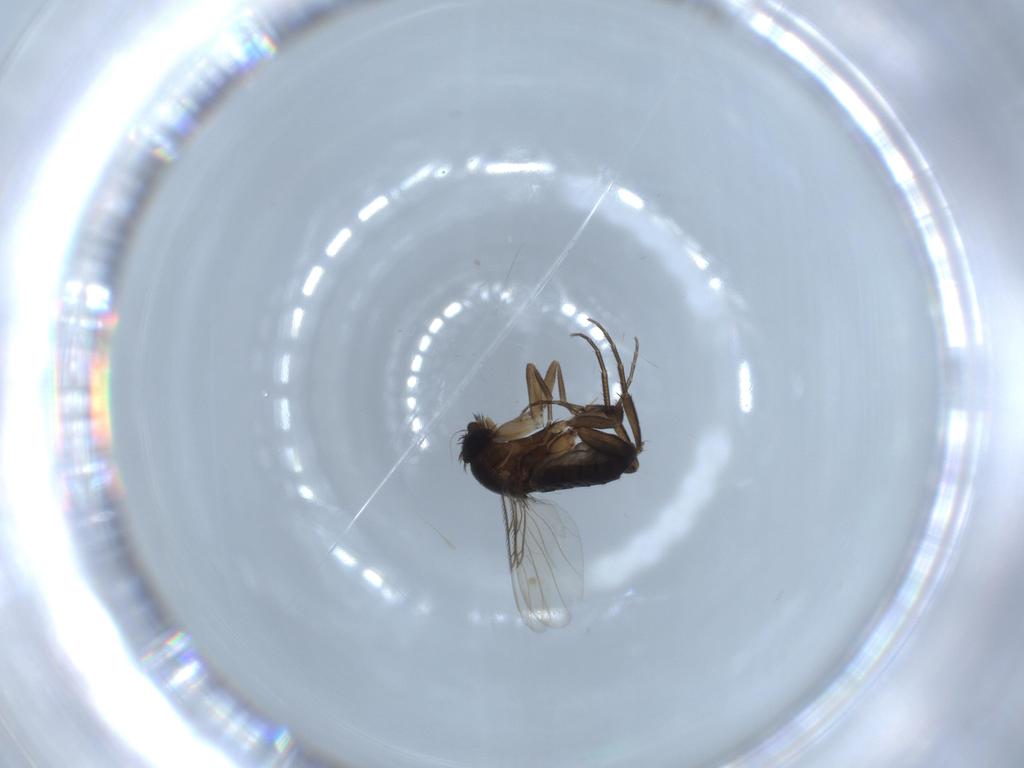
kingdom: Animalia
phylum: Arthropoda
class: Insecta
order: Diptera
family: Phoridae
